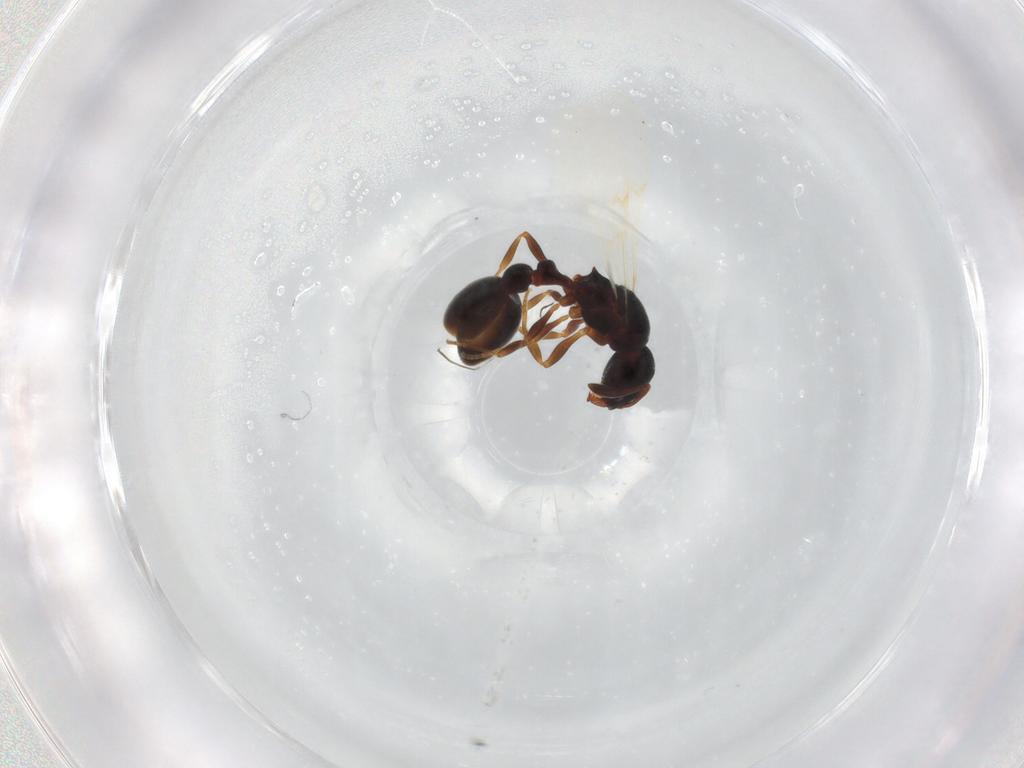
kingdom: Animalia
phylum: Arthropoda
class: Insecta
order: Hymenoptera
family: Formicidae
